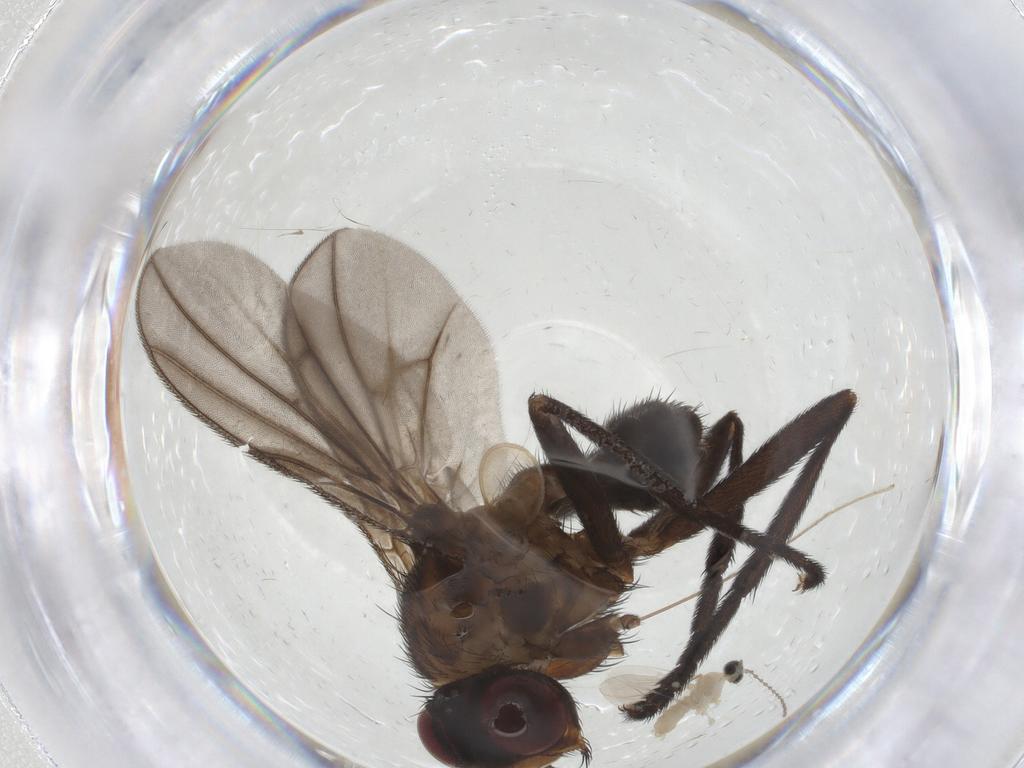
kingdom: Animalia
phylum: Arthropoda
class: Insecta
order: Diptera
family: Calliphoridae
